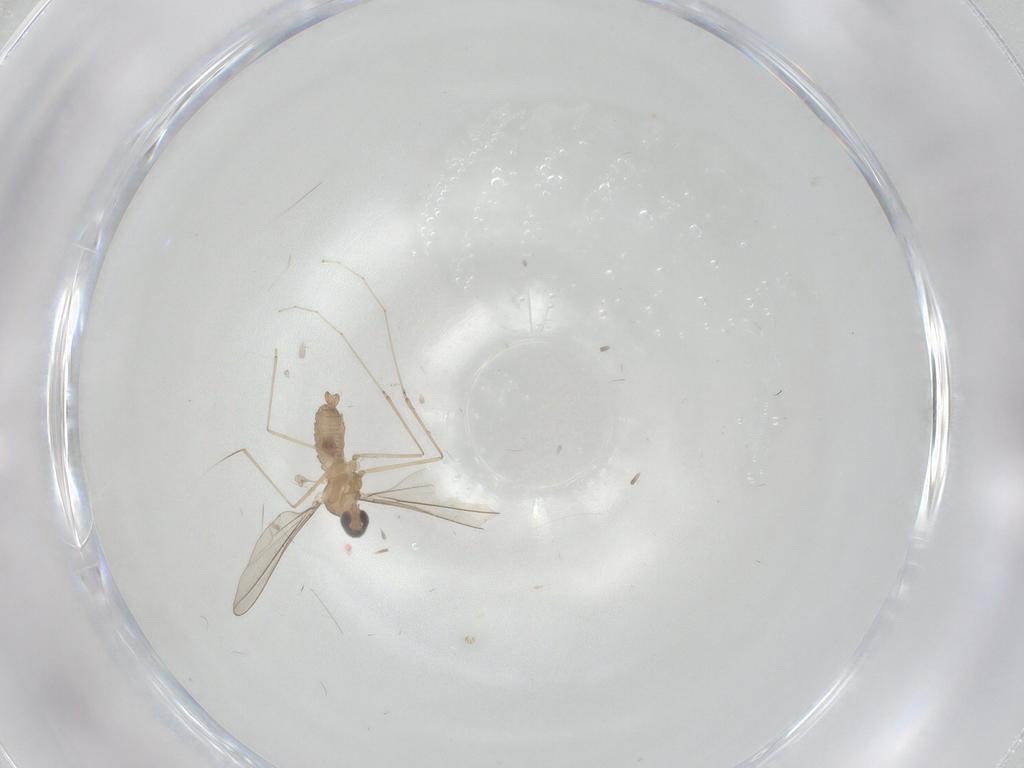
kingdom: Animalia
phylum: Arthropoda
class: Insecta
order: Diptera
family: Cecidomyiidae
